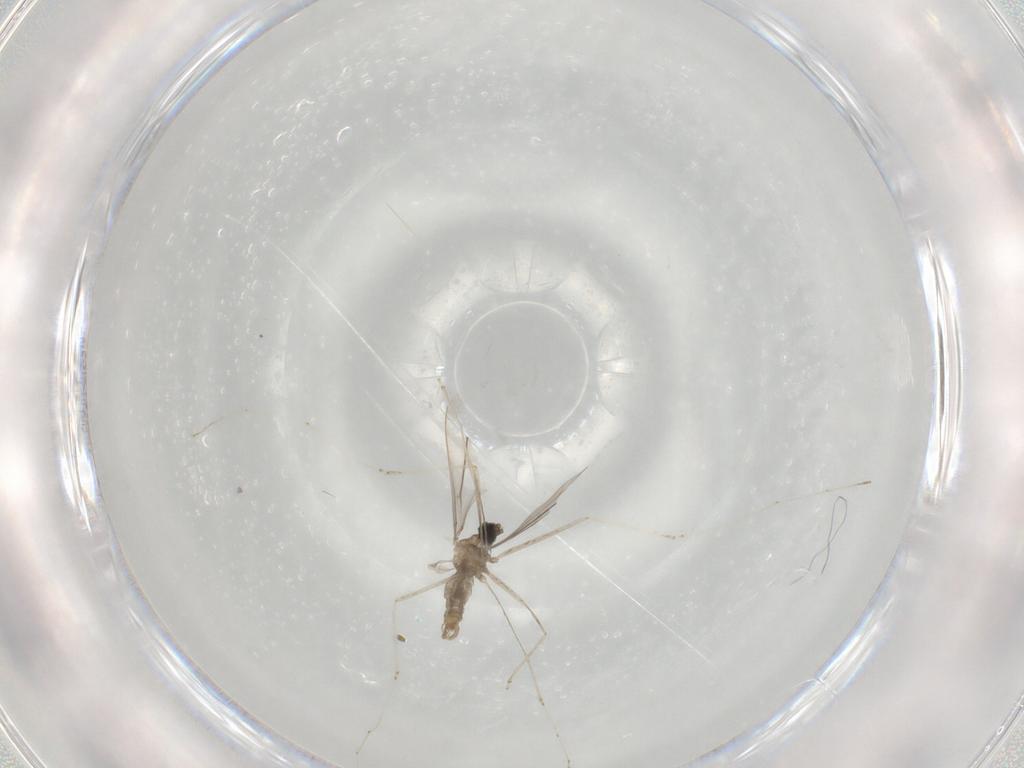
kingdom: Animalia
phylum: Arthropoda
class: Insecta
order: Diptera
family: Cecidomyiidae
